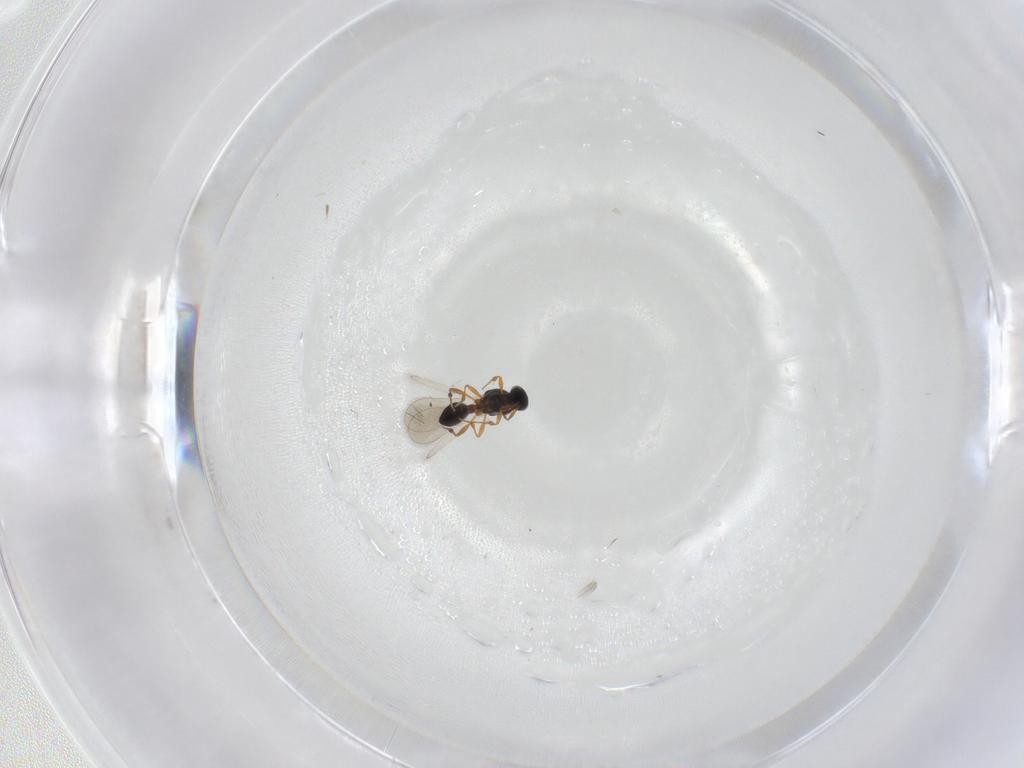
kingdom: Animalia
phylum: Arthropoda
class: Insecta
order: Hymenoptera
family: Platygastridae
